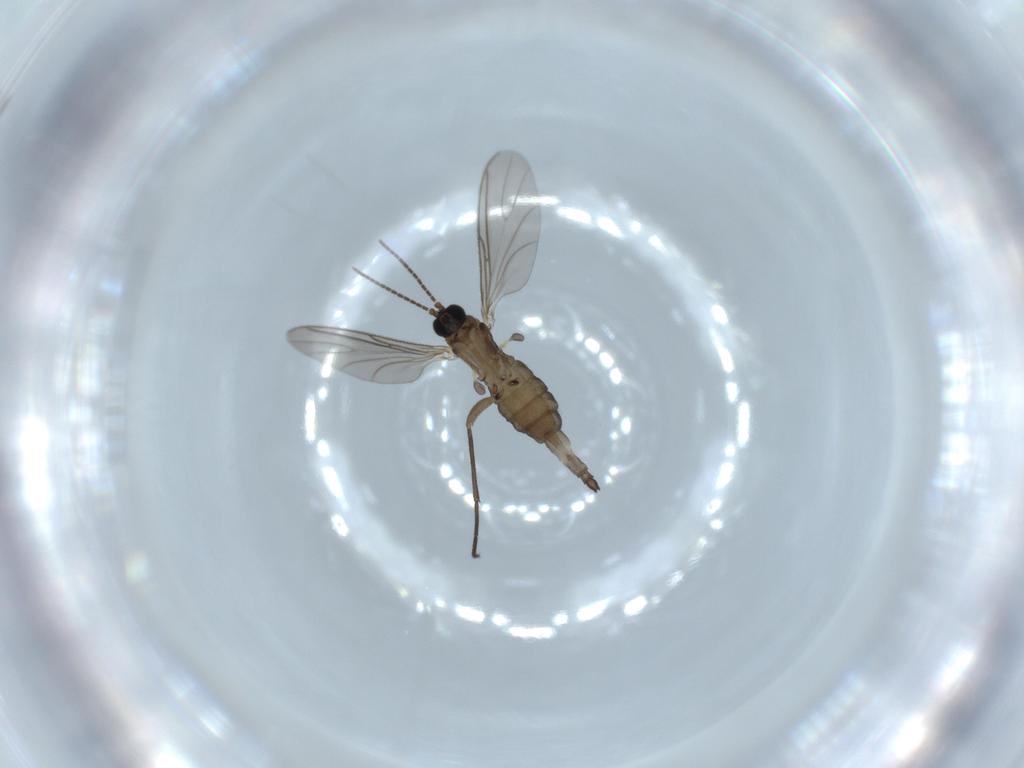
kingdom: Animalia
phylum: Arthropoda
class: Insecta
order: Diptera
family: Sciaridae
